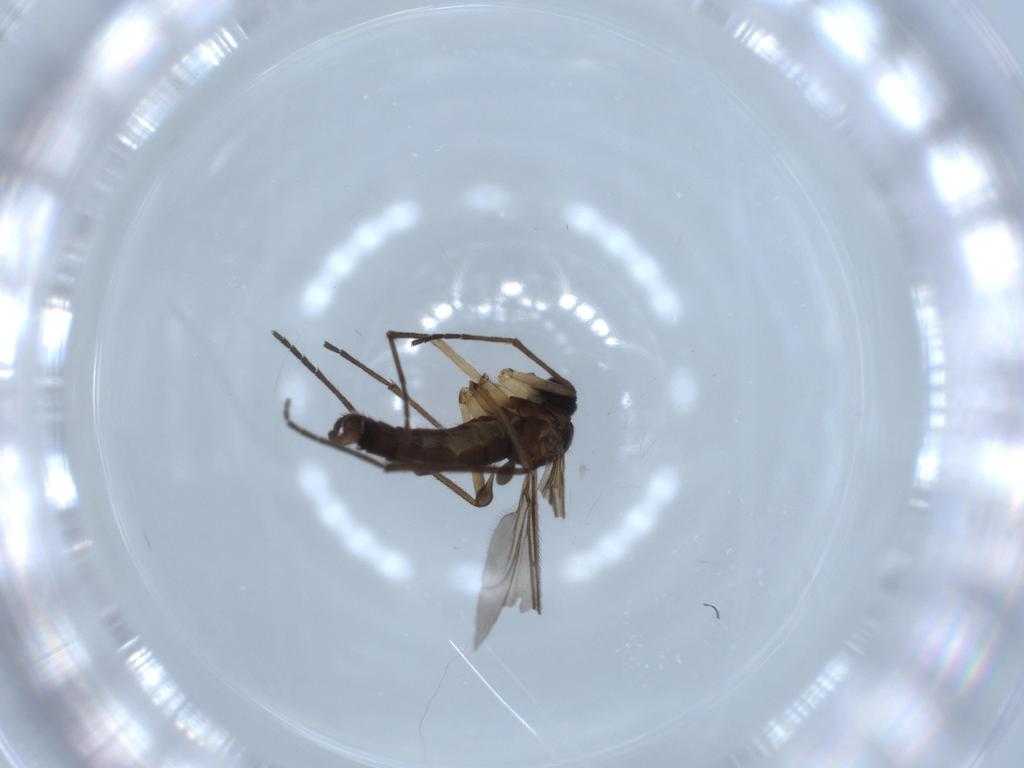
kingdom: Animalia
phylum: Arthropoda
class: Insecta
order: Diptera
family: Sciaridae
